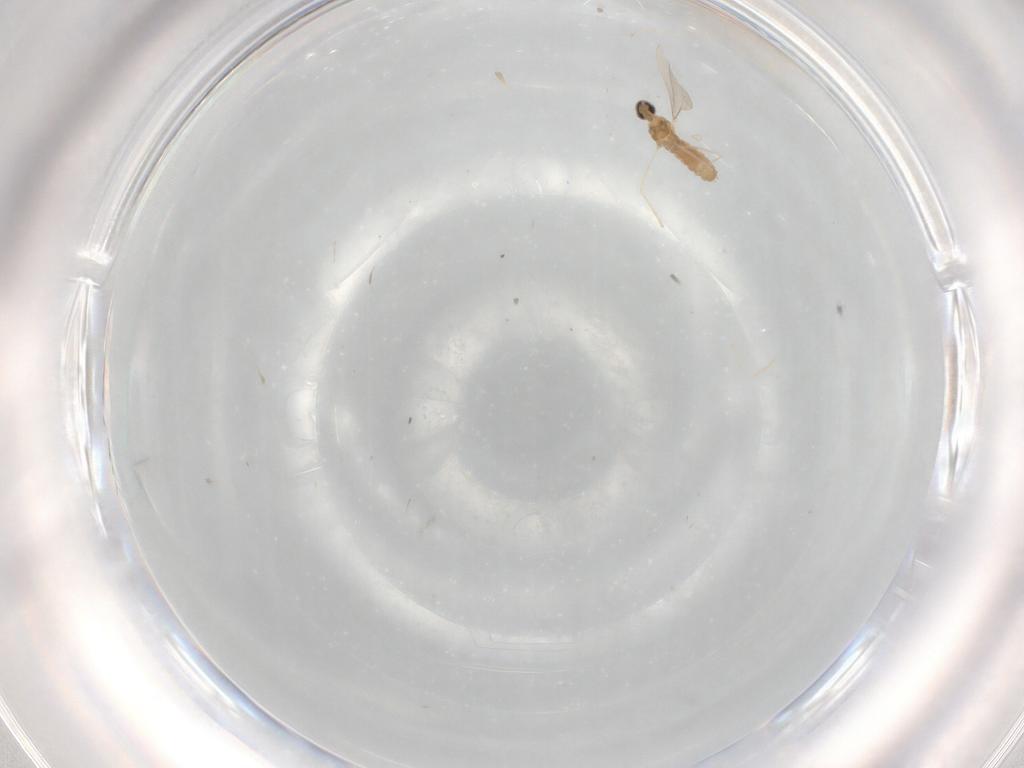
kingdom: Animalia
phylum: Arthropoda
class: Insecta
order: Diptera
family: Cecidomyiidae
